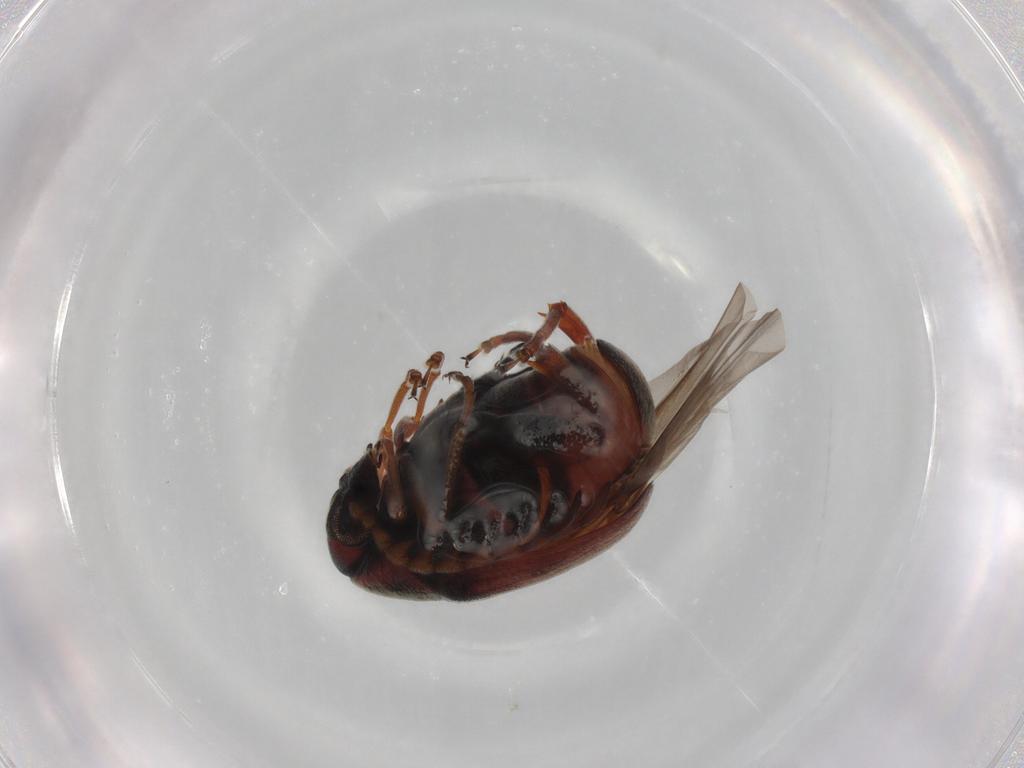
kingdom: Animalia
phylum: Arthropoda
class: Insecta
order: Coleoptera
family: Chrysomelidae
